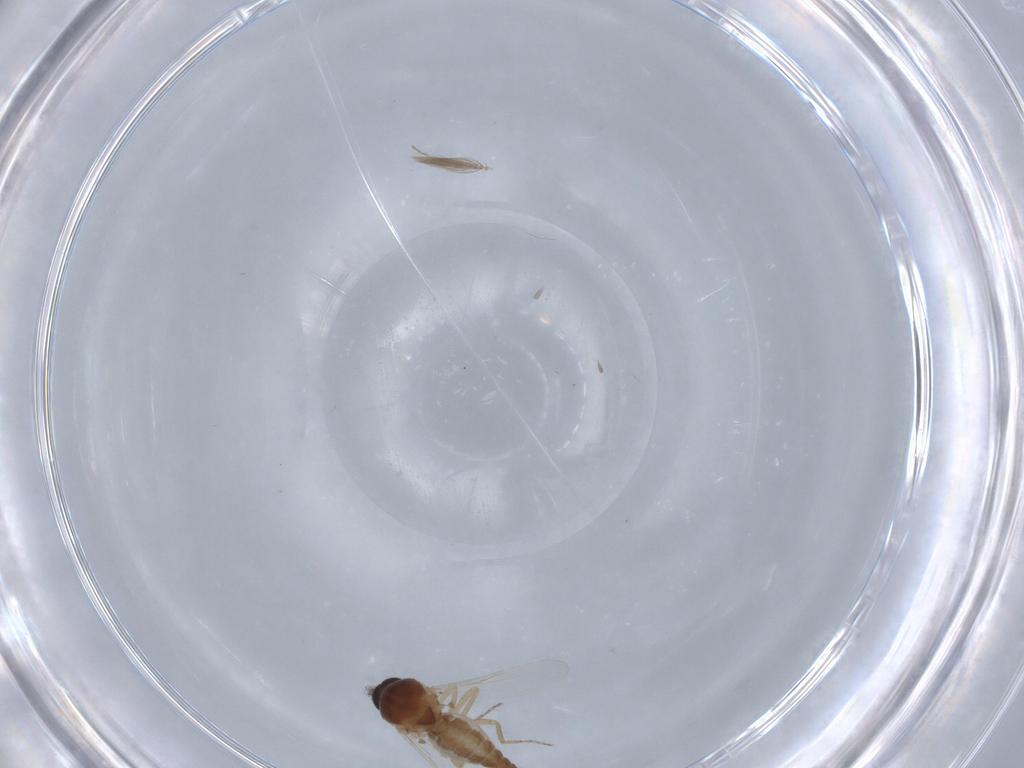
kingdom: Animalia
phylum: Arthropoda
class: Insecta
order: Diptera
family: Ceratopogonidae
